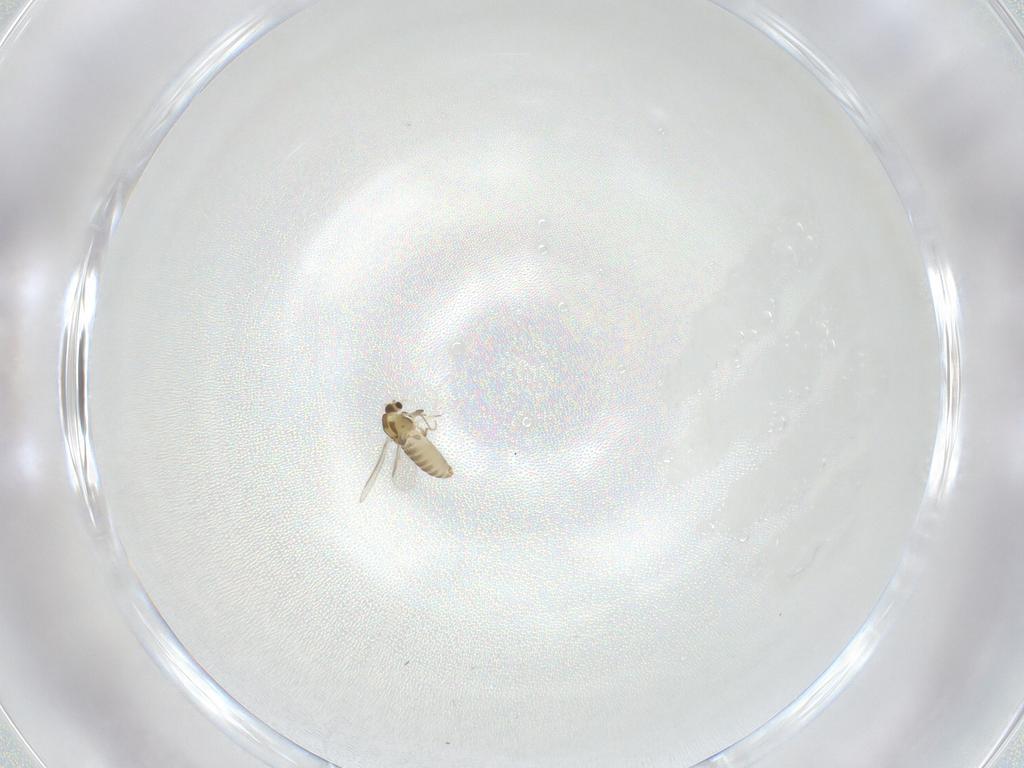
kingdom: Animalia
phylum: Arthropoda
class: Insecta
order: Diptera
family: Cecidomyiidae
